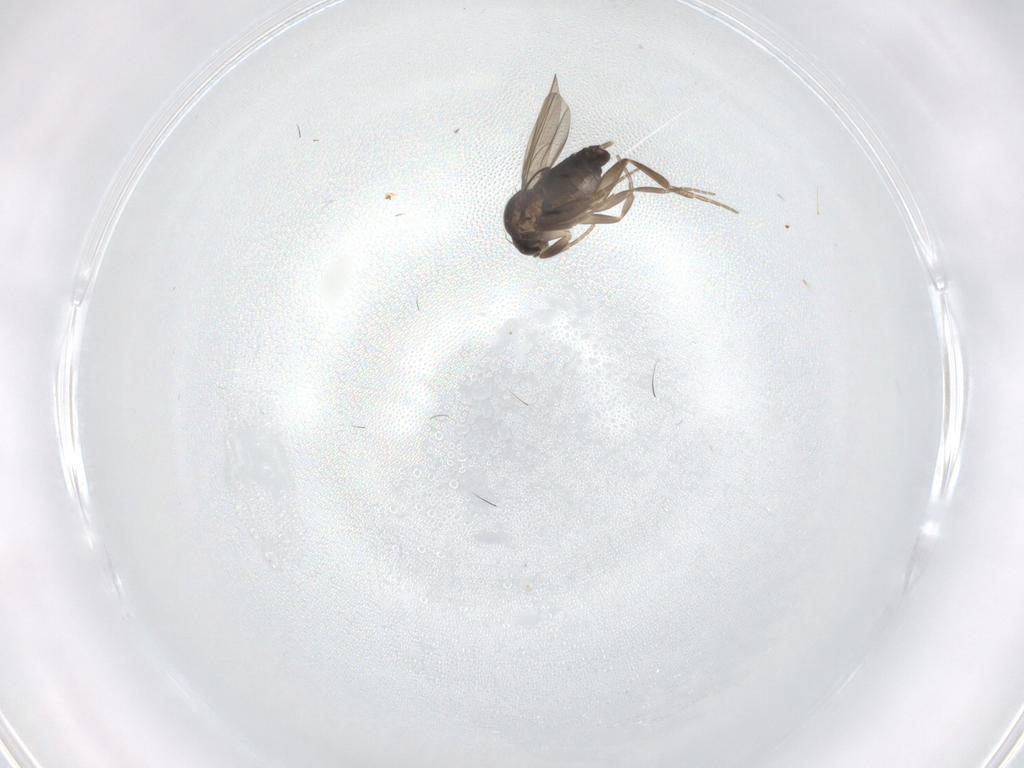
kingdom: Animalia
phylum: Arthropoda
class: Insecta
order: Diptera
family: Phoridae
